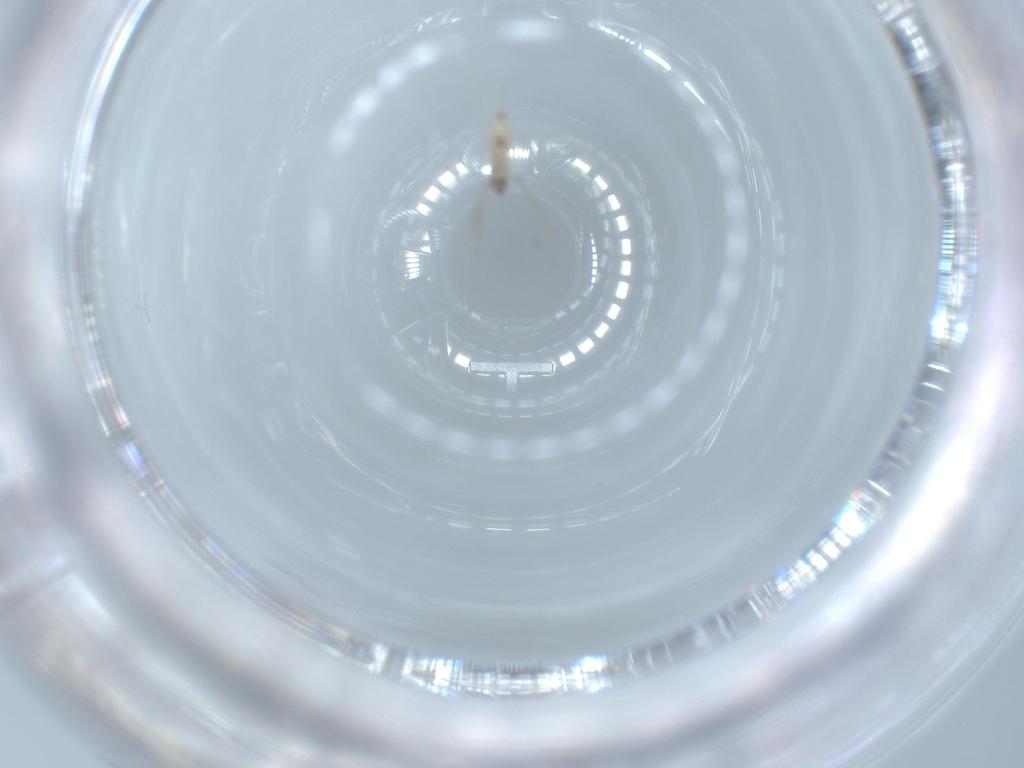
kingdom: Animalia
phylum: Arthropoda
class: Insecta
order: Diptera
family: Cecidomyiidae
